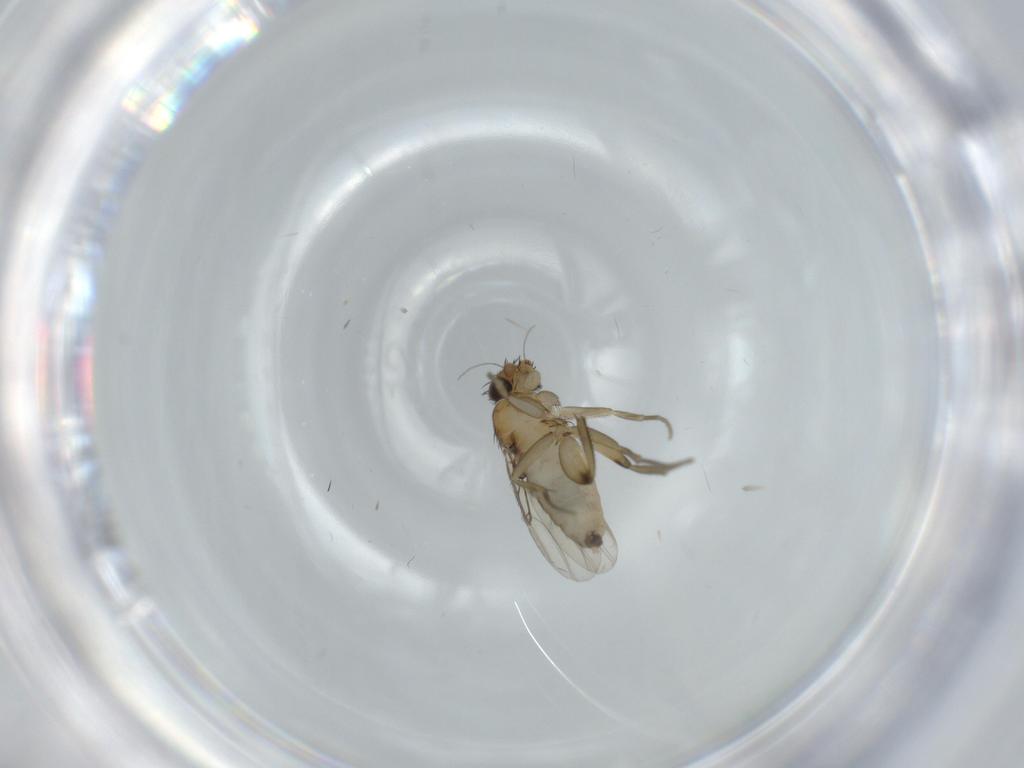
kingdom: Animalia
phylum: Arthropoda
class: Insecta
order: Diptera
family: Phoridae
